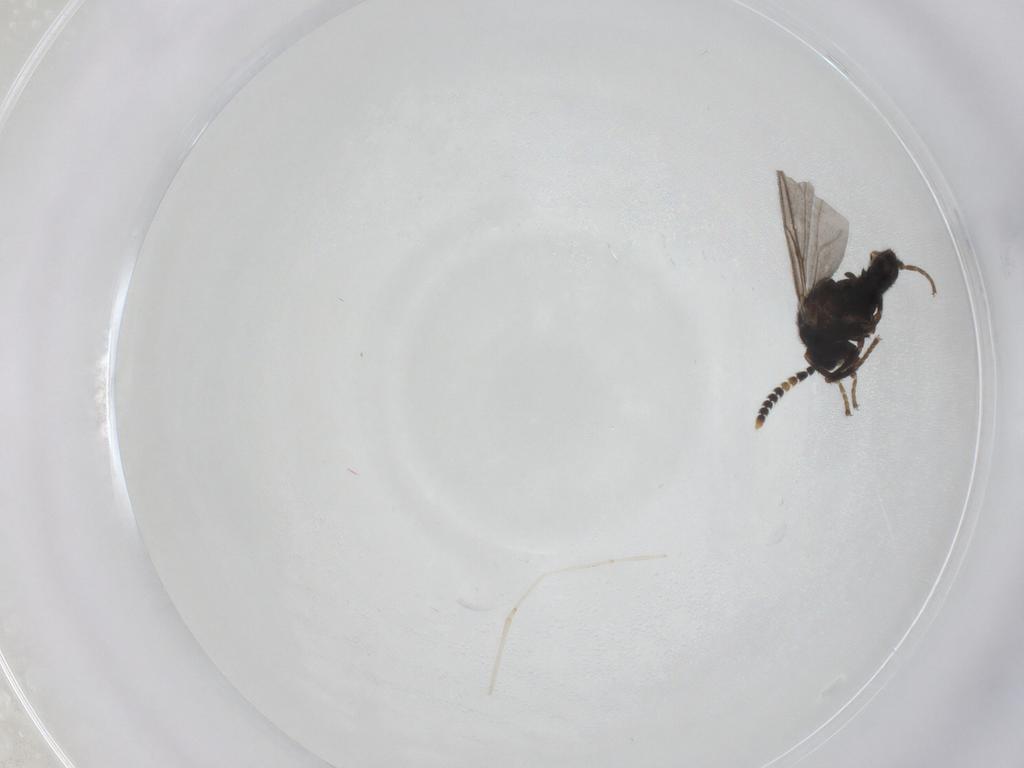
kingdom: Animalia
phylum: Arthropoda
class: Insecta
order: Diptera
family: Scatopsidae
